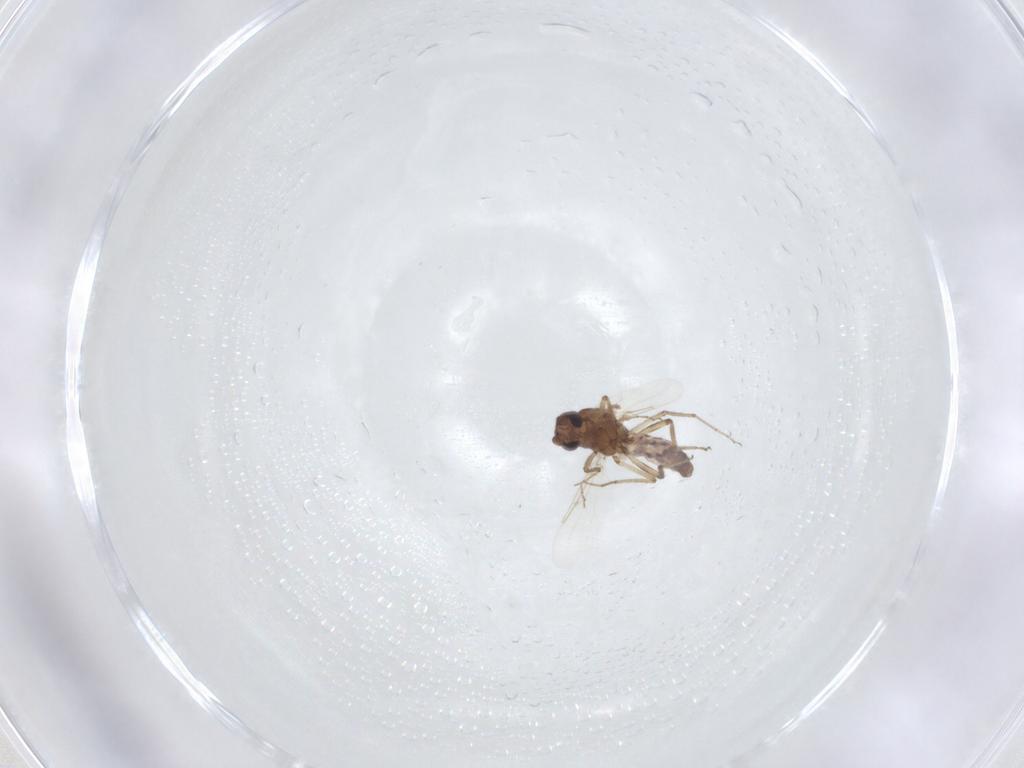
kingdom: Animalia
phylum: Arthropoda
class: Insecta
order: Diptera
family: Ceratopogonidae
